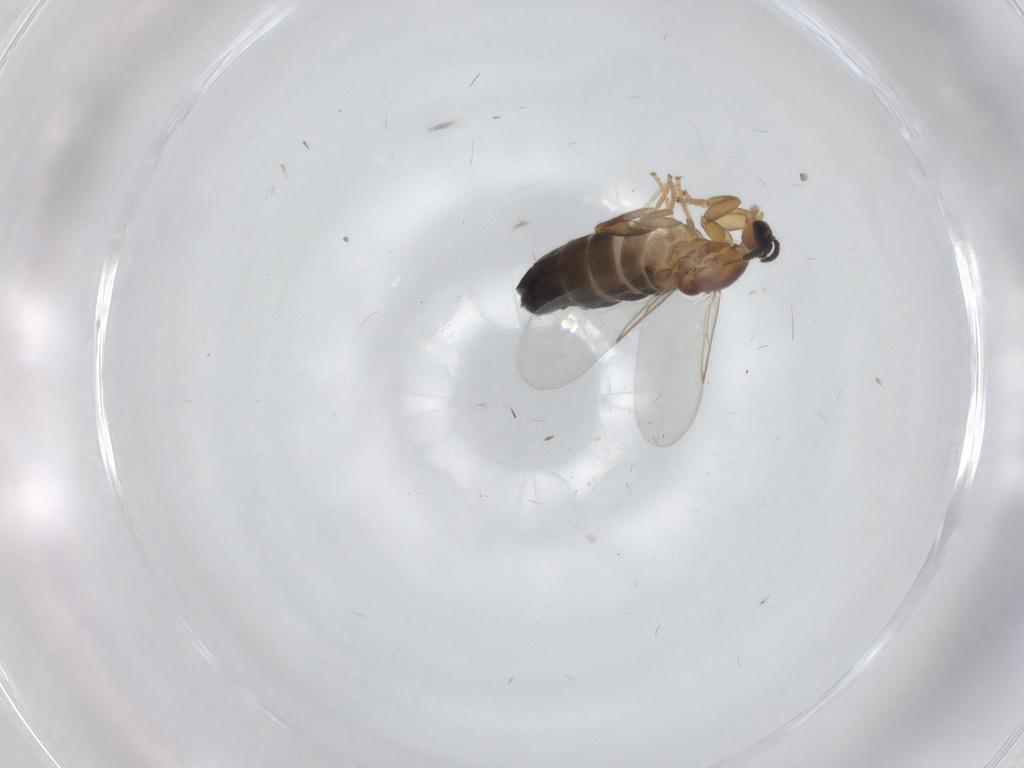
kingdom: Animalia
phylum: Arthropoda
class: Insecta
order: Diptera
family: Scatopsidae
